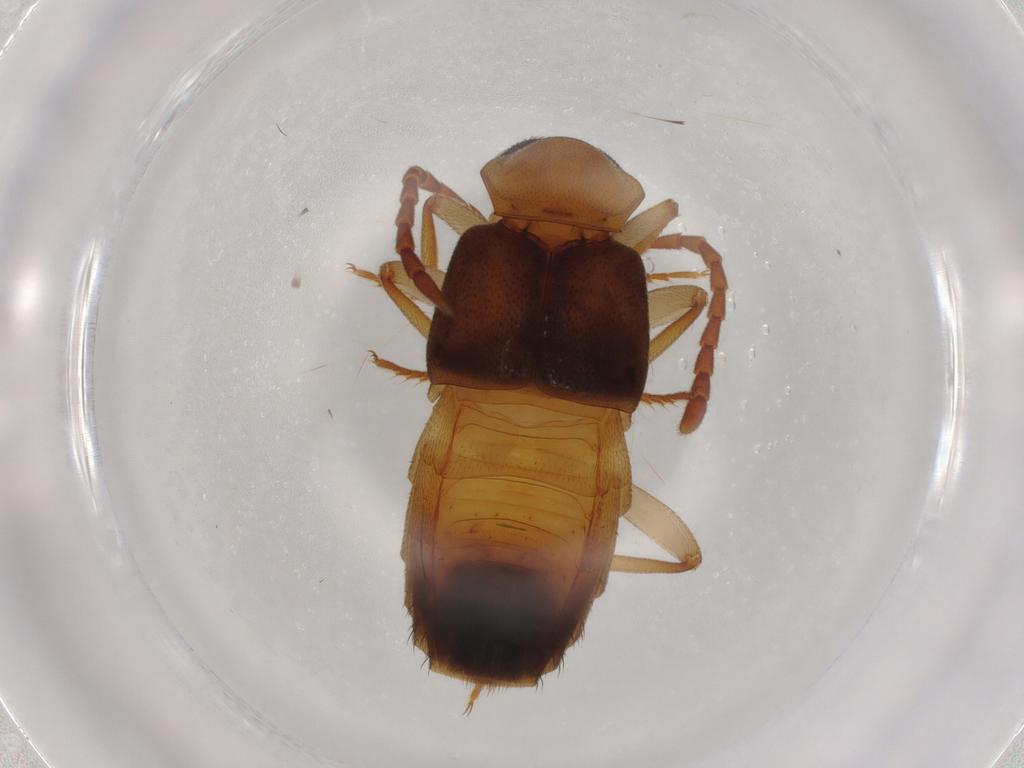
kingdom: Animalia
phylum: Arthropoda
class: Insecta
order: Coleoptera
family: Staphylinidae
